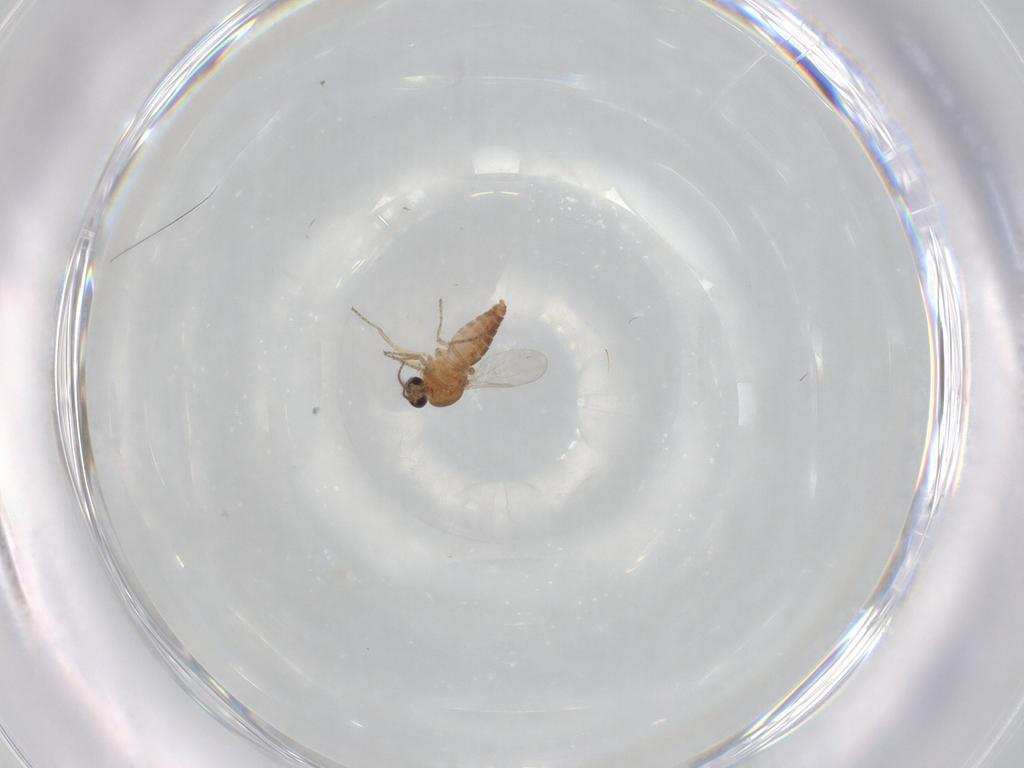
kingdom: Animalia
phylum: Arthropoda
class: Insecta
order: Diptera
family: Ceratopogonidae
